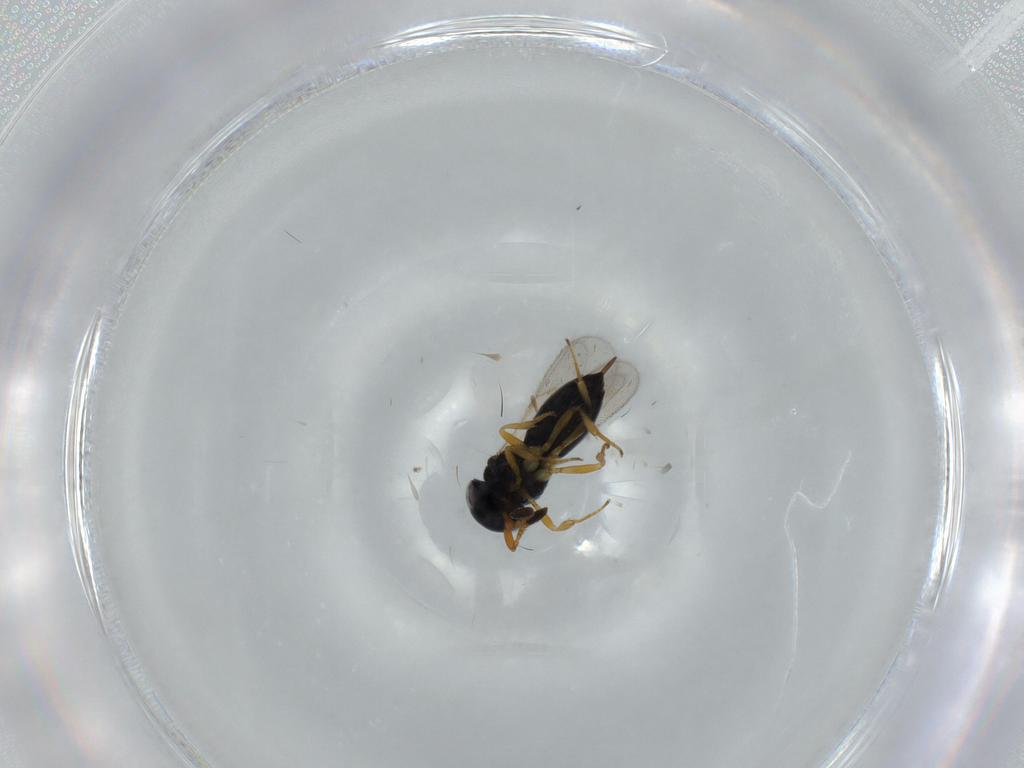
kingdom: Animalia
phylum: Arthropoda
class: Insecta
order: Hymenoptera
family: Scelionidae
